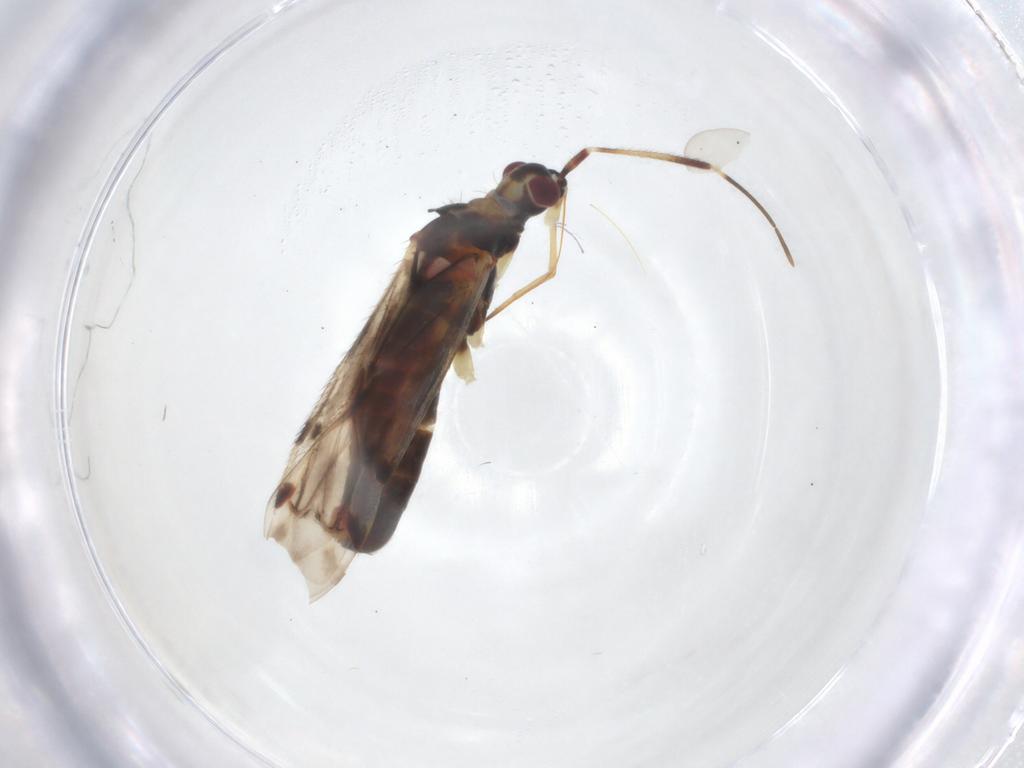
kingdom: Animalia
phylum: Arthropoda
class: Insecta
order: Hemiptera
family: Miridae
